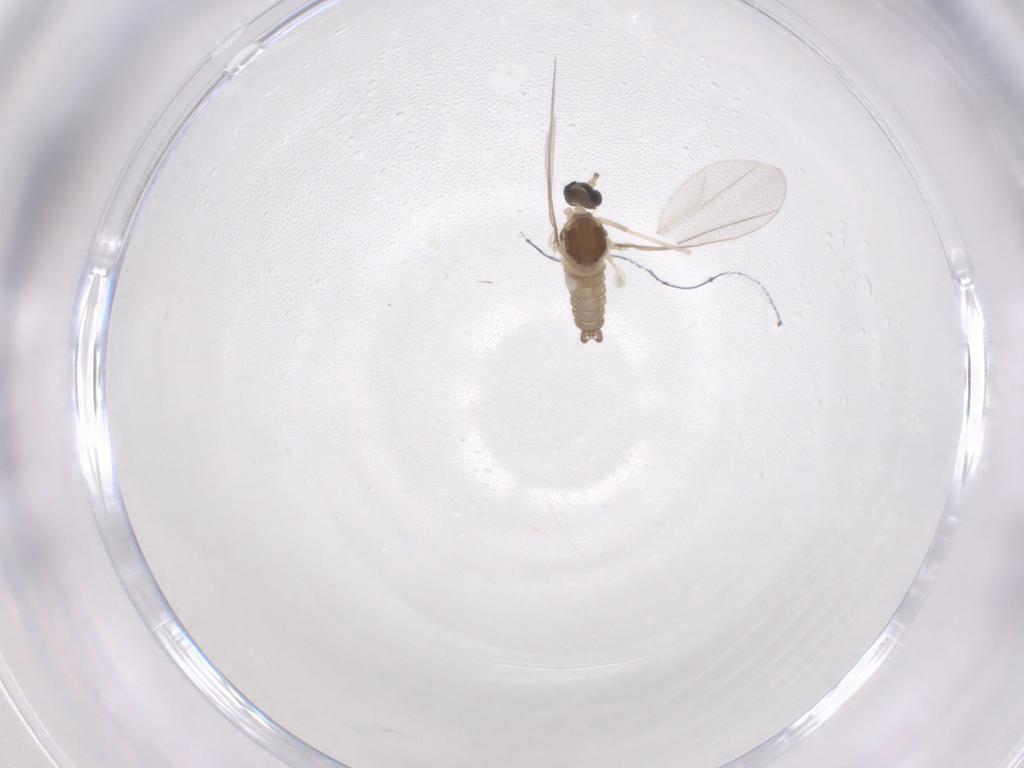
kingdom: Animalia
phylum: Arthropoda
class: Insecta
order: Diptera
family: Cecidomyiidae
